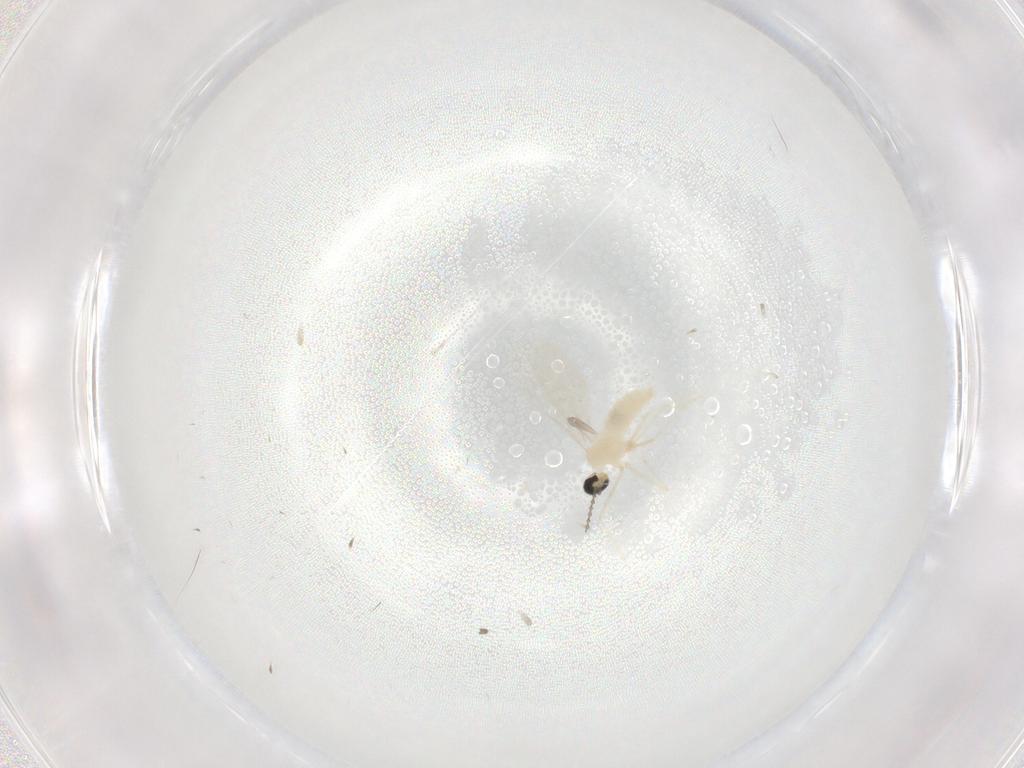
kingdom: Animalia
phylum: Arthropoda
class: Insecta
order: Diptera
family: Cecidomyiidae
